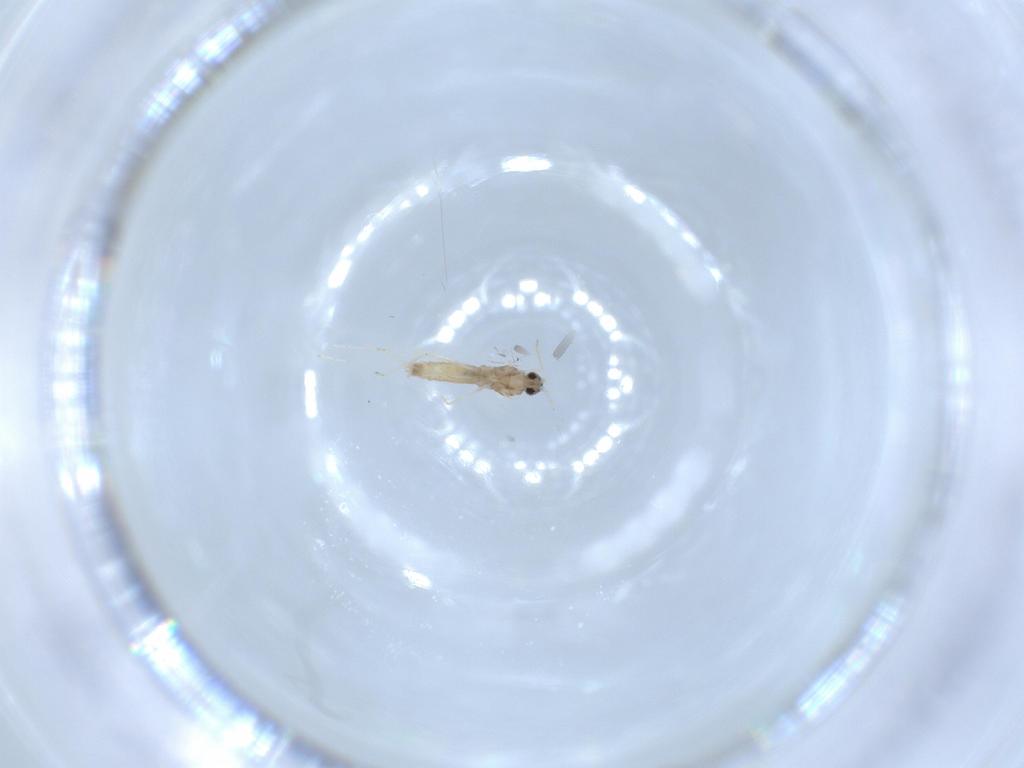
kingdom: Animalia
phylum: Arthropoda
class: Insecta
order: Diptera
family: Cecidomyiidae
